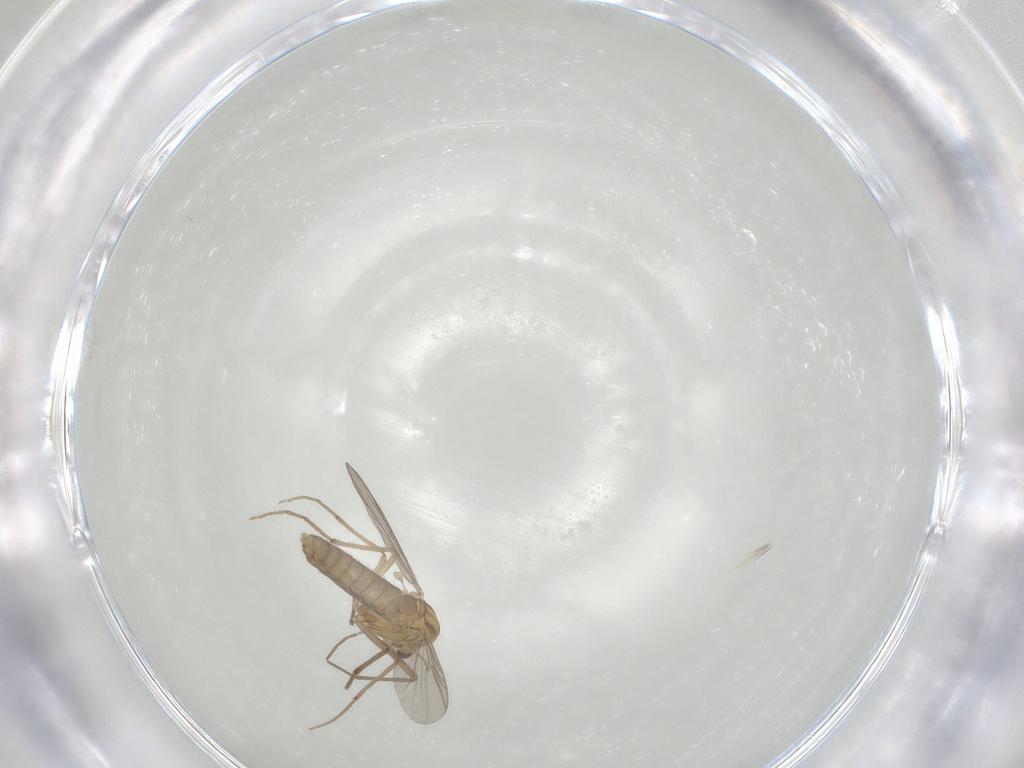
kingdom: Animalia
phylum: Arthropoda
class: Insecta
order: Diptera
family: Chironomidae
